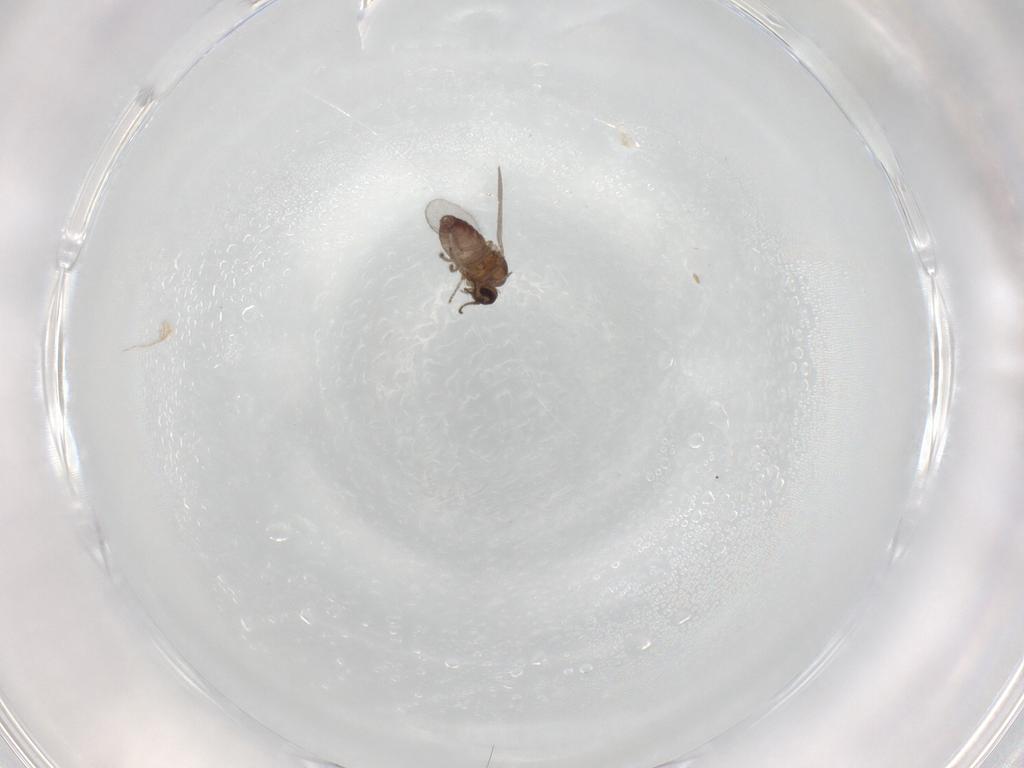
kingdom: Animalia
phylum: Arthropoda
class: Insecta
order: Diptera
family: Ceratopogonidae
